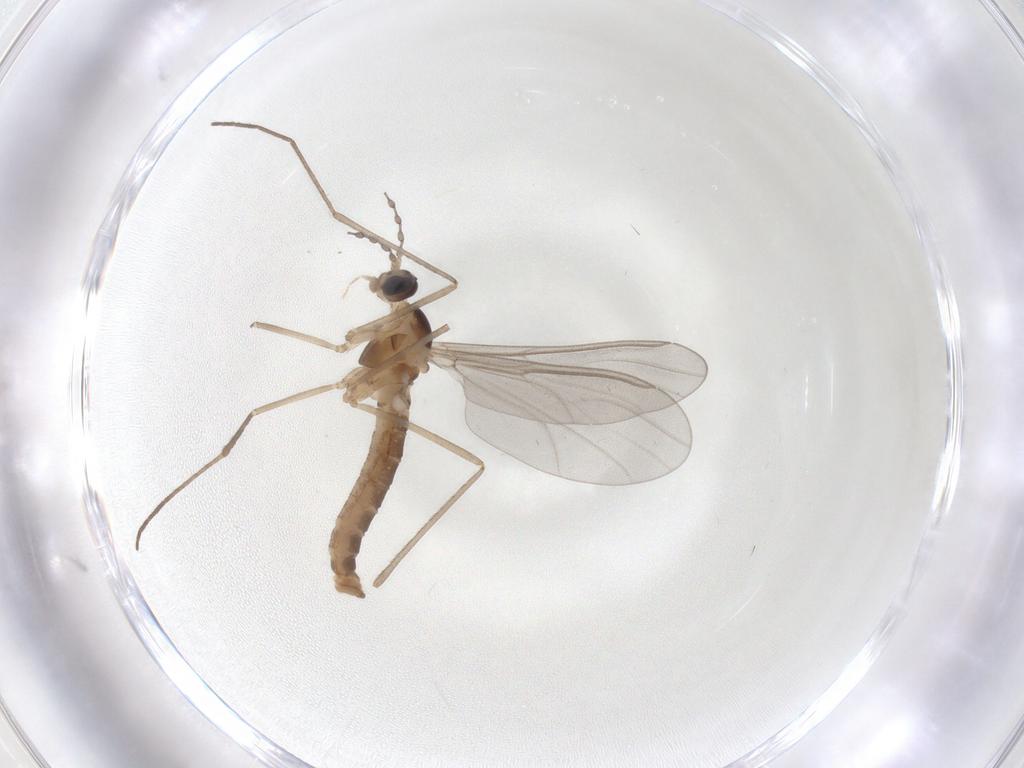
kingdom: Animalia
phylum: Arthropoda
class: Insecta
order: Diptera
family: Cecidomyiidae
